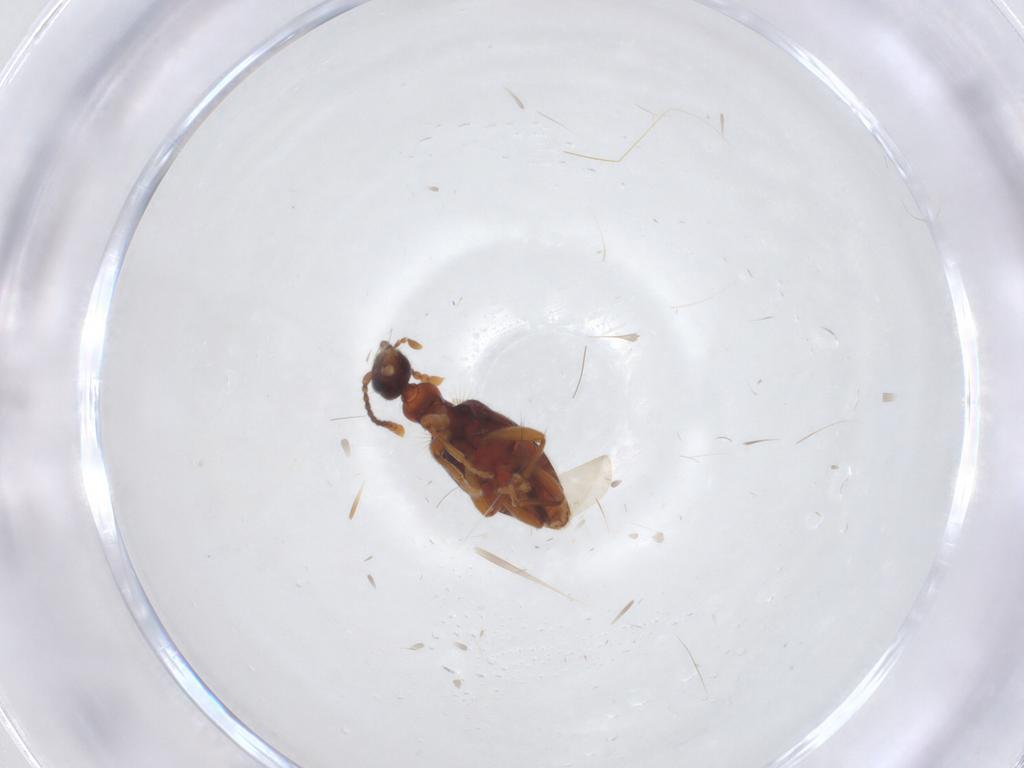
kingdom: Animalia
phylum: Arthropoda
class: Insecta
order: Coleoptera
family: Anthicidae
